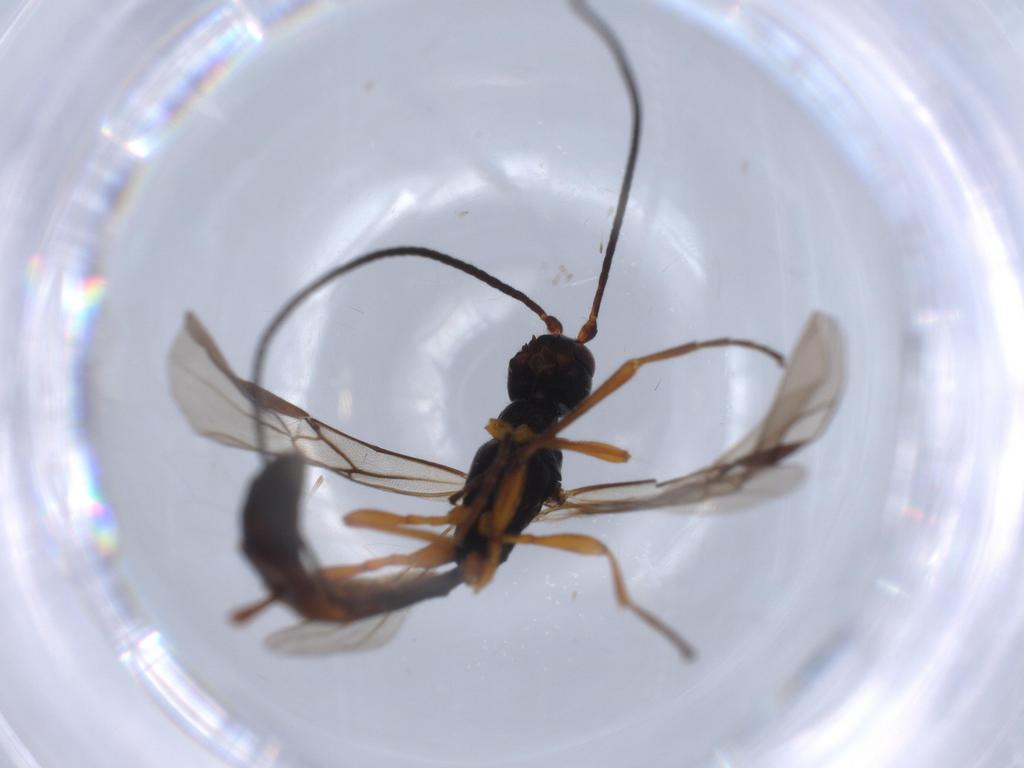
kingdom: Animalia
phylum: Arthropoda
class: Insecta
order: Hymenoptera
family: Braconidae
